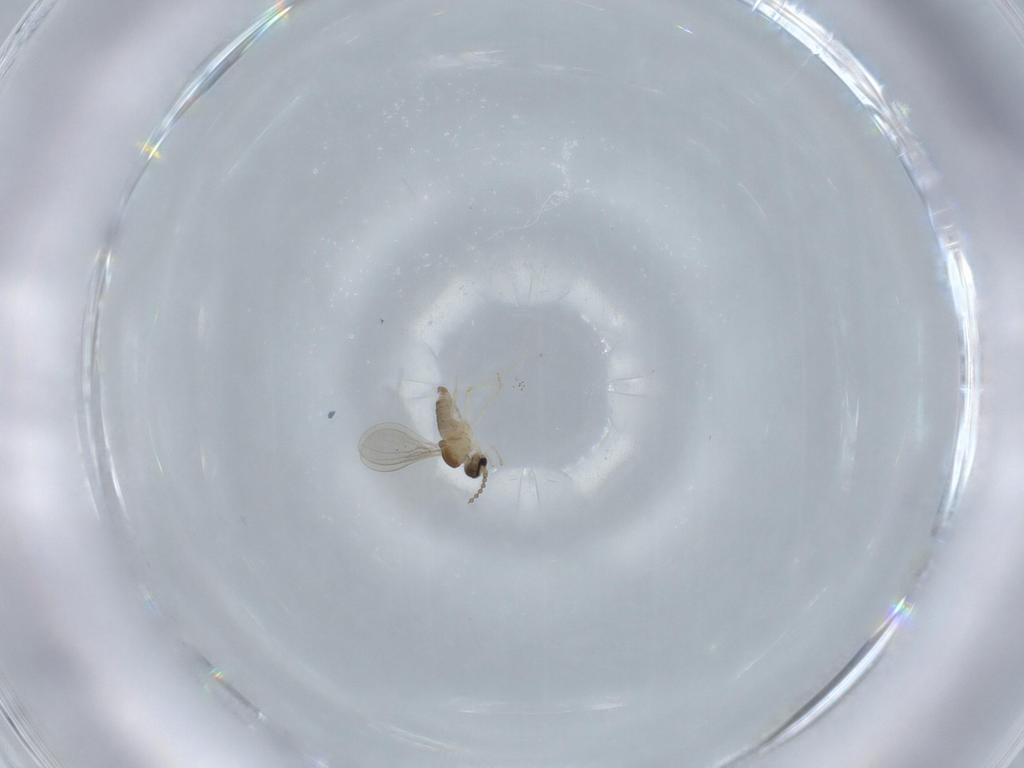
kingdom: Animalia
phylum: Arthropoda
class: Insecta
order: Diptera
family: Cecidomyiidae
